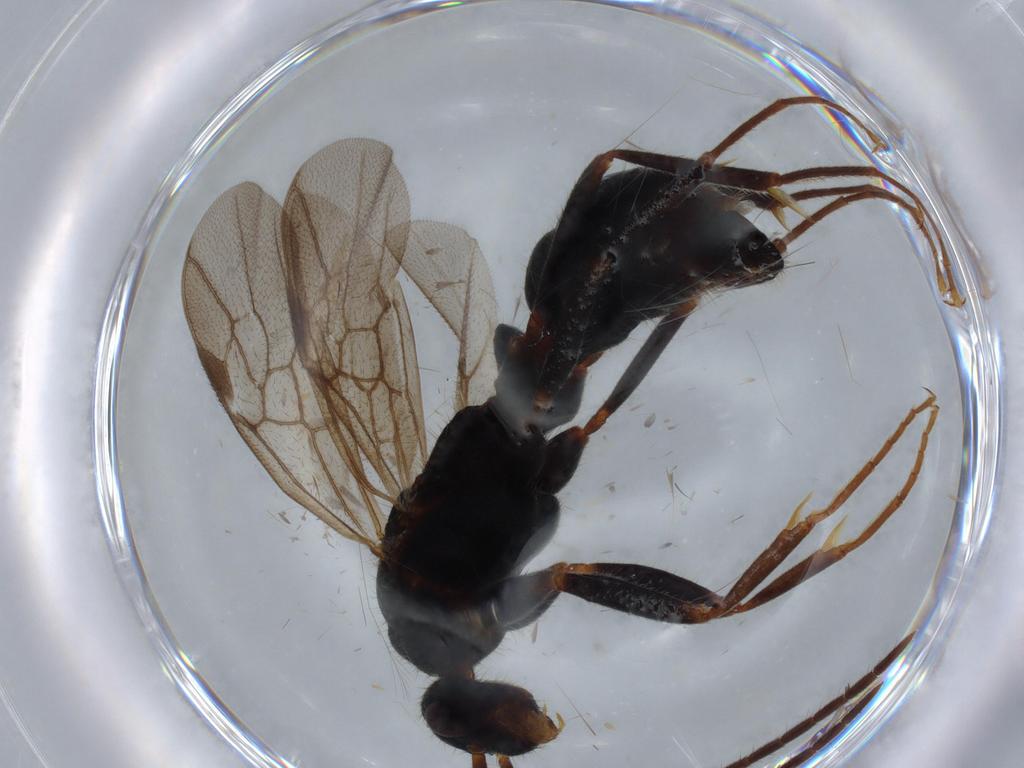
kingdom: Animalia
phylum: Arthropoda
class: Insecta
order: Hymenoptera
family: Formicidae
